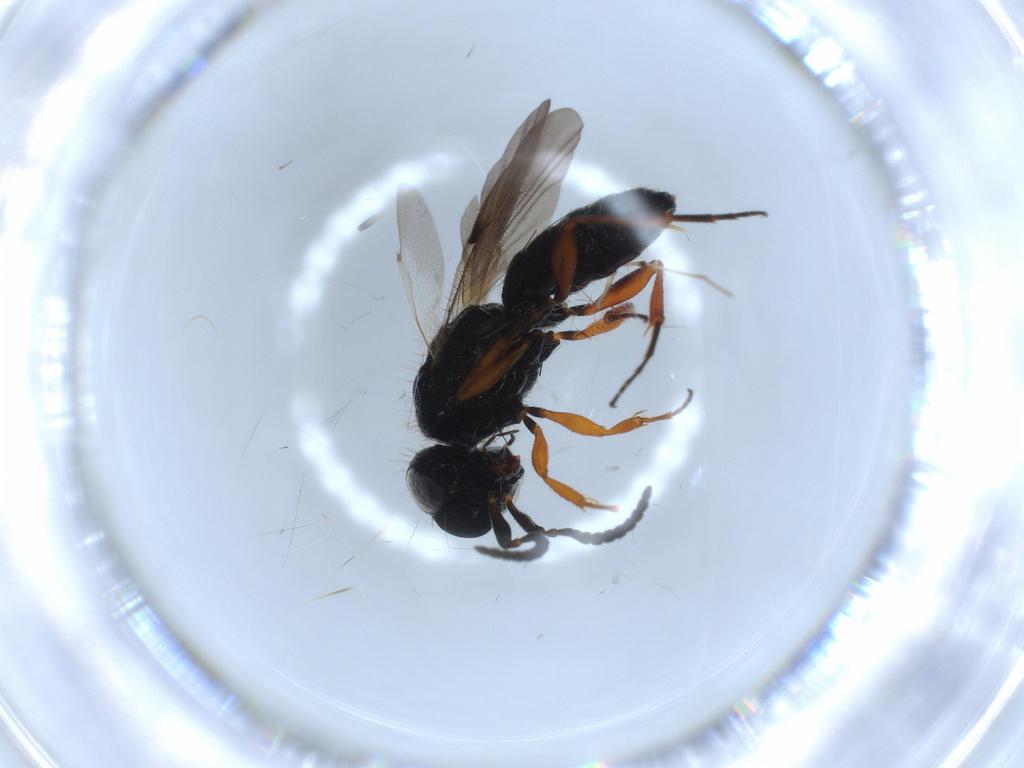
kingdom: Animalia
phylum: Arthropoda
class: Insecta
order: Hymenoptera
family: Scelionidae
